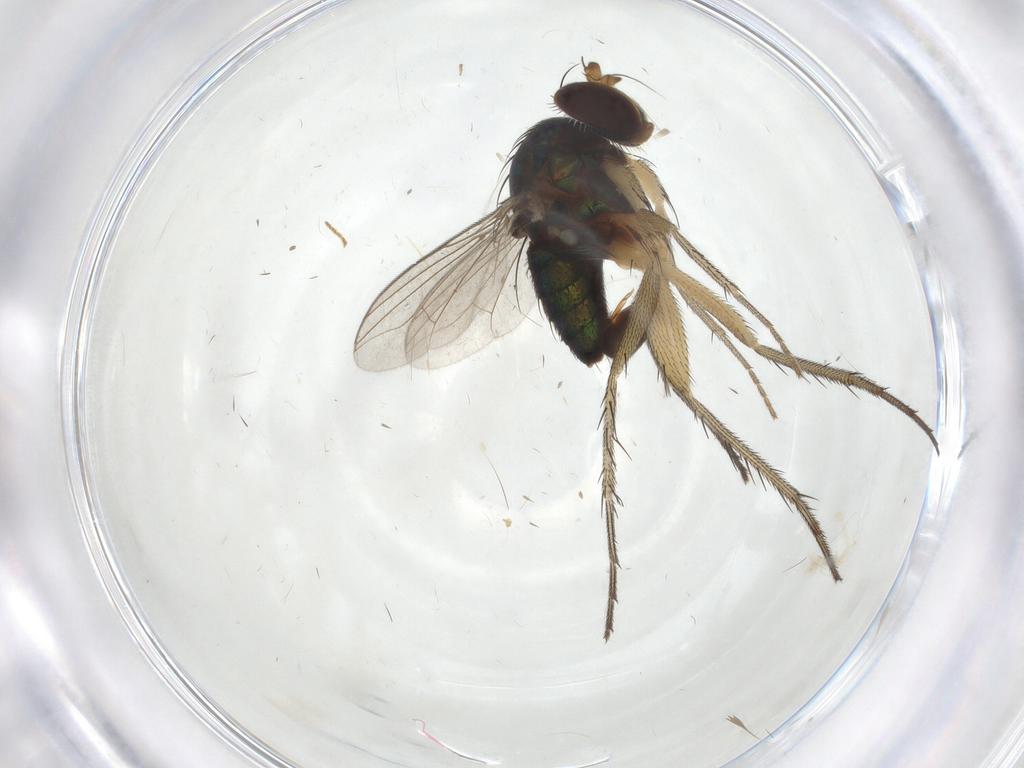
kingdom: Animalia
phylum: Arthropoda
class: Insecta
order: Diptera
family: Dolichopodidae
